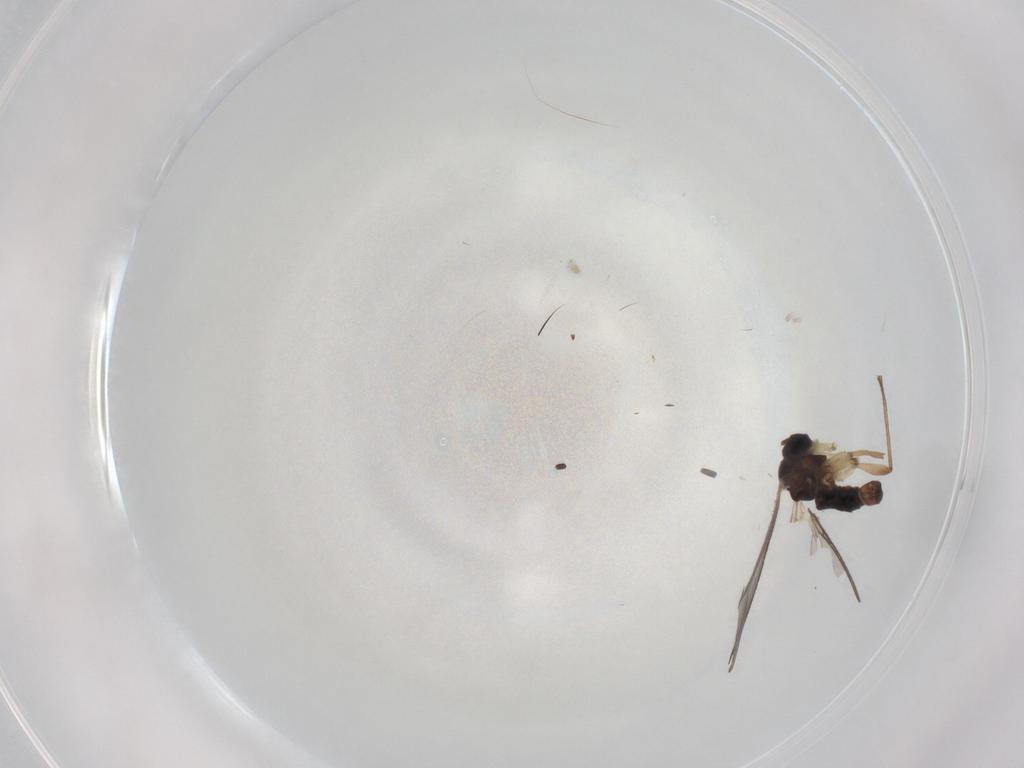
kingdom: Animalia
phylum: Arthropoda
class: Insecta
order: Diptera
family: Sciaridae
